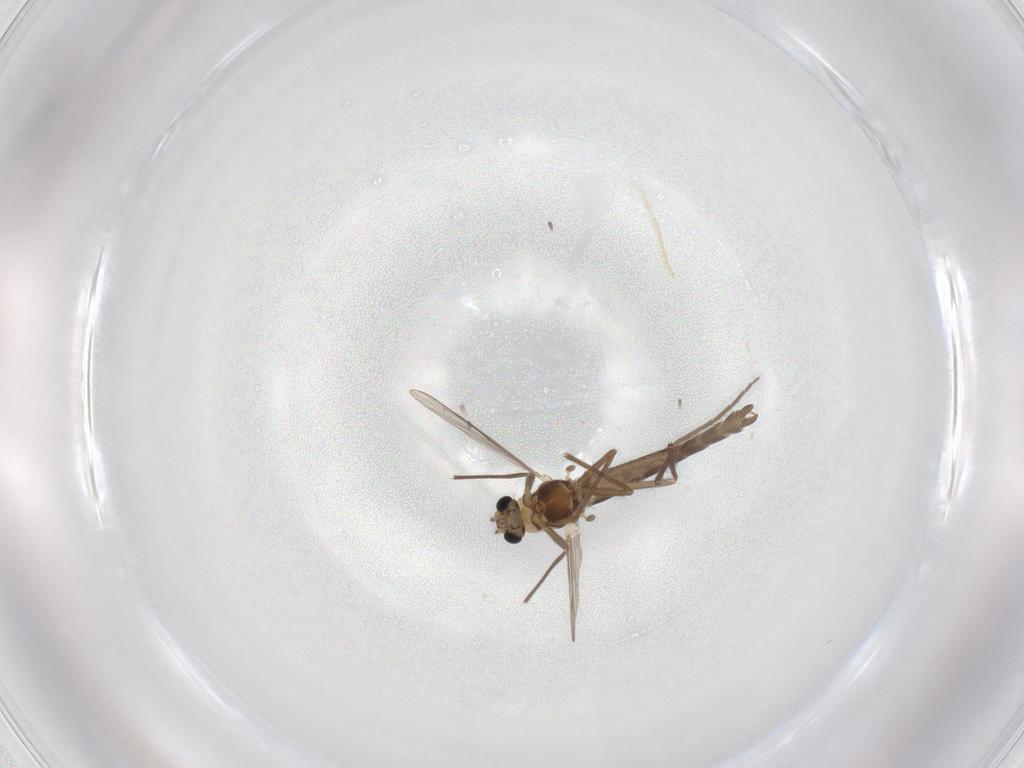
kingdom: Animalia
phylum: Arthropoda
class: Insecta
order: Diptera
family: Chironomidae
